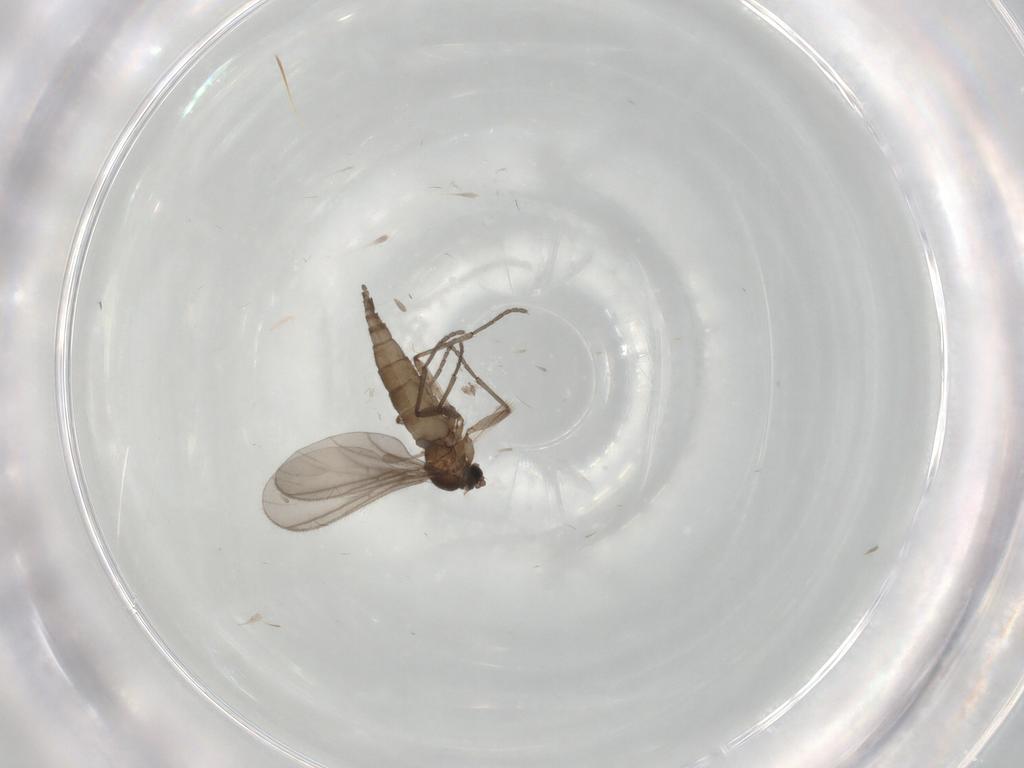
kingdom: Animalia
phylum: Arthropoda
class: Insecta
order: Diptera
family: Sciaridae
